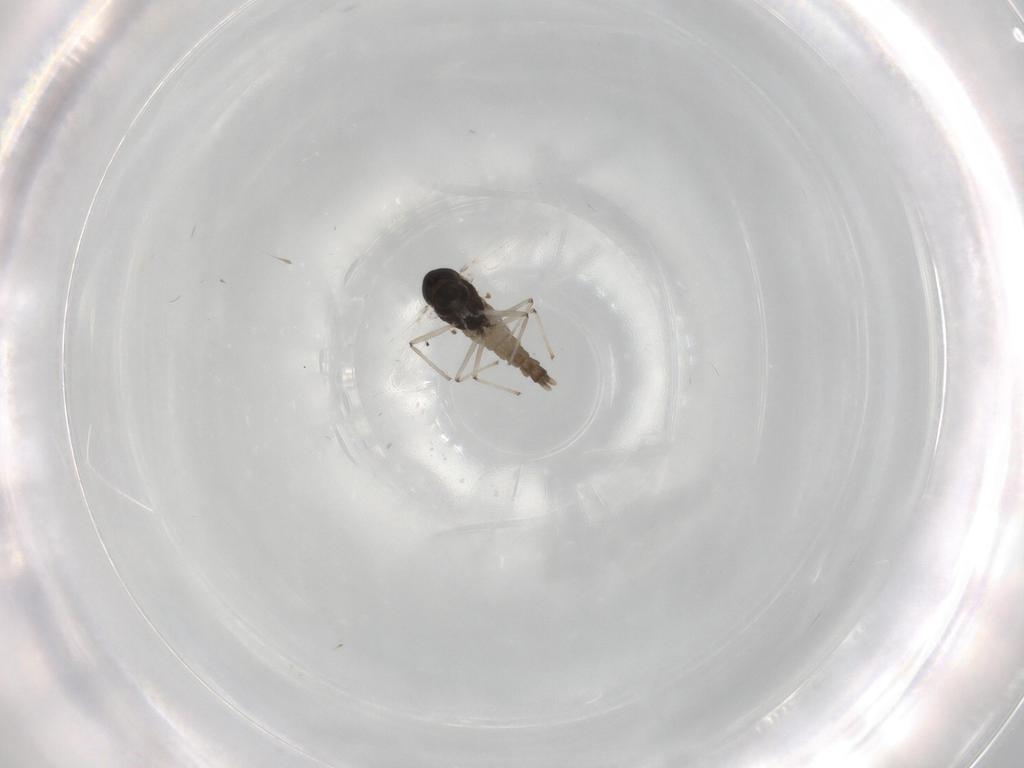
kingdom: Animalia
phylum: Arthropoda
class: Insecta
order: Diptera
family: Phoridae
